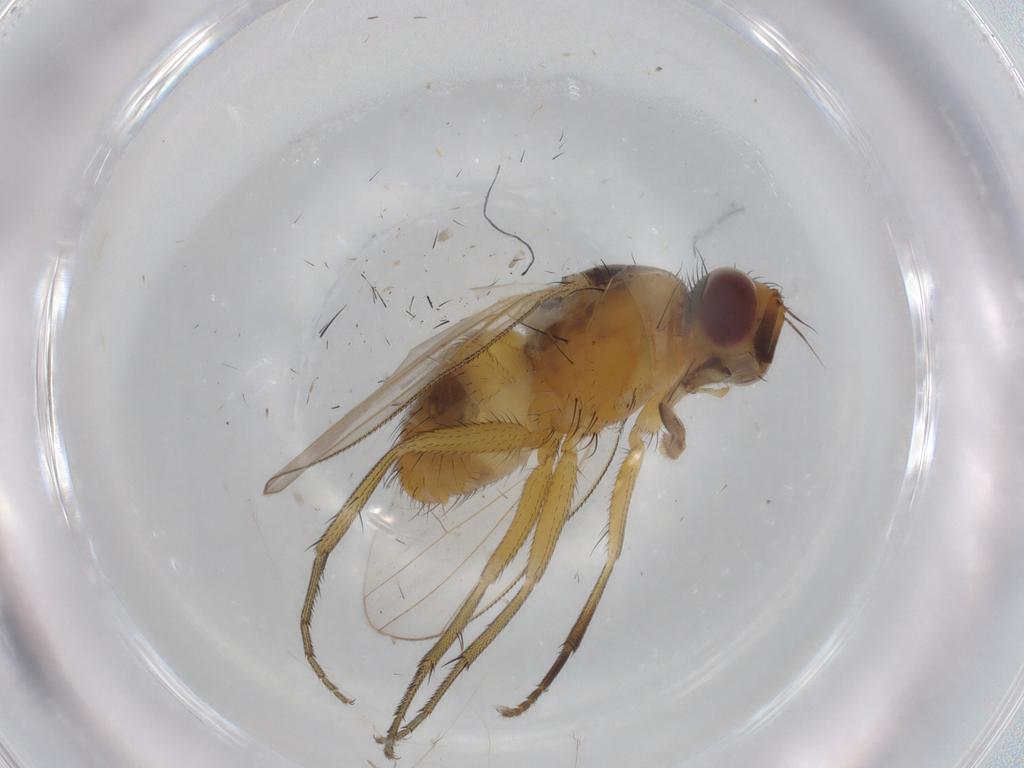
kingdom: Animalia
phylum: Arthropoda
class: Insecta
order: Diptera
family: Muscidae
